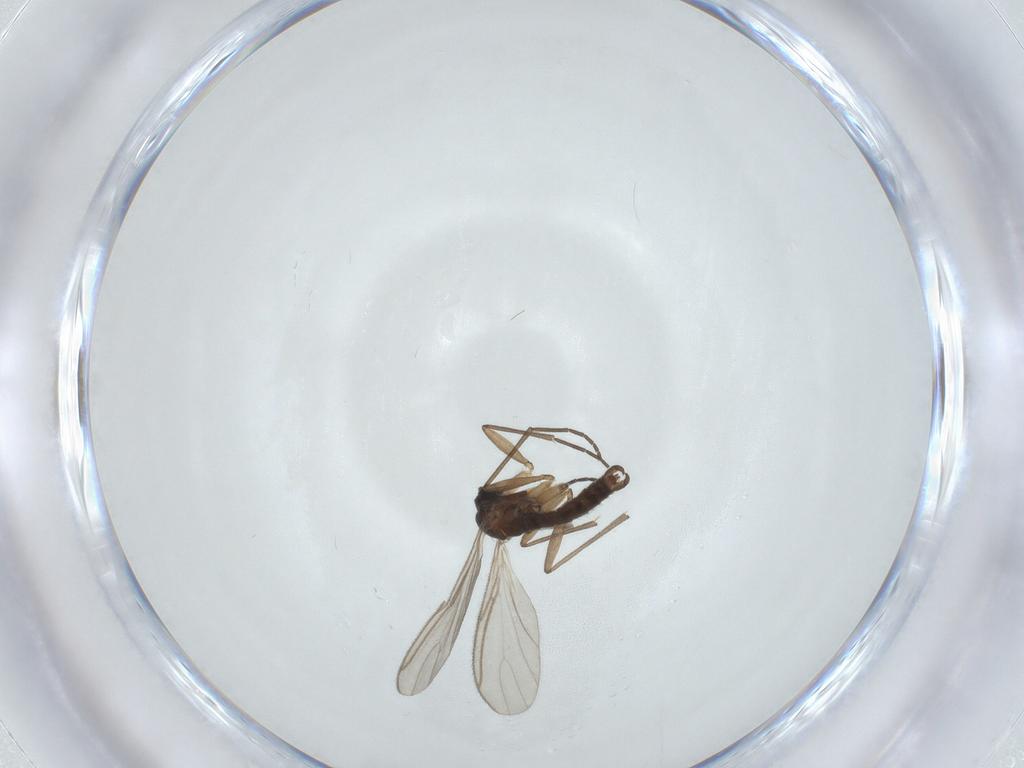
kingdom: Animalia
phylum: Arthropoda
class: Insecta
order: Diptera
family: Sciaridae
